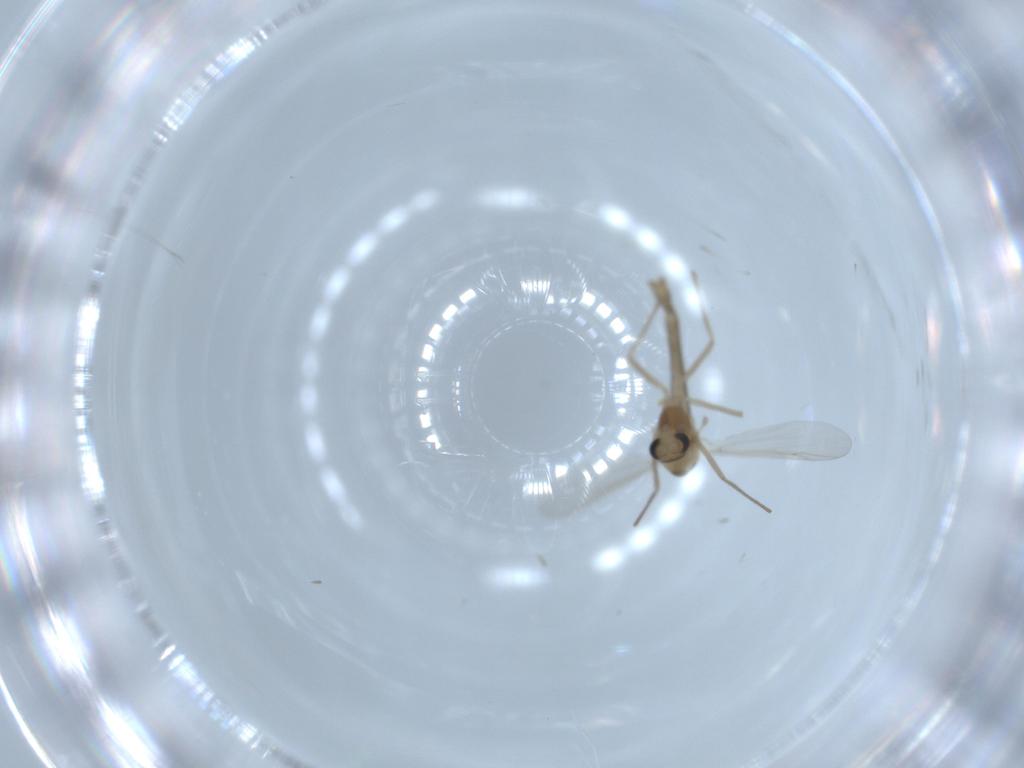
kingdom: Animalia
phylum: Arthropoda
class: Insecta
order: Diptera
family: Chironomidae
